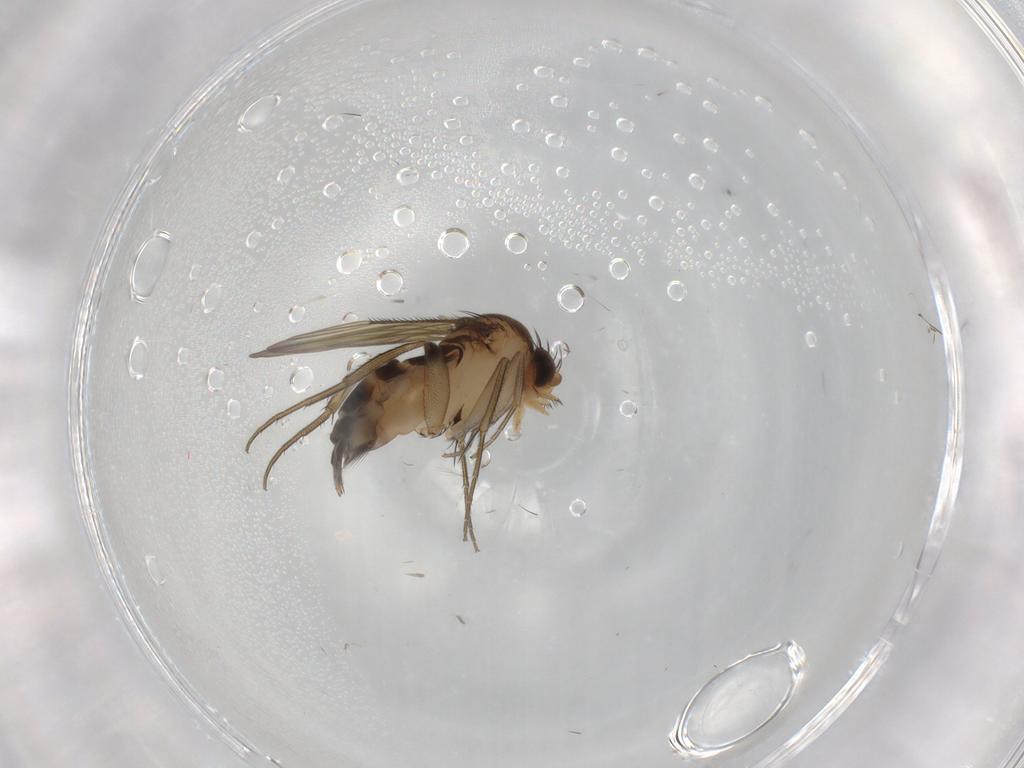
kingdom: Animalia
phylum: Arthropoda
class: Insecta
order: Diptera
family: Phoridae
